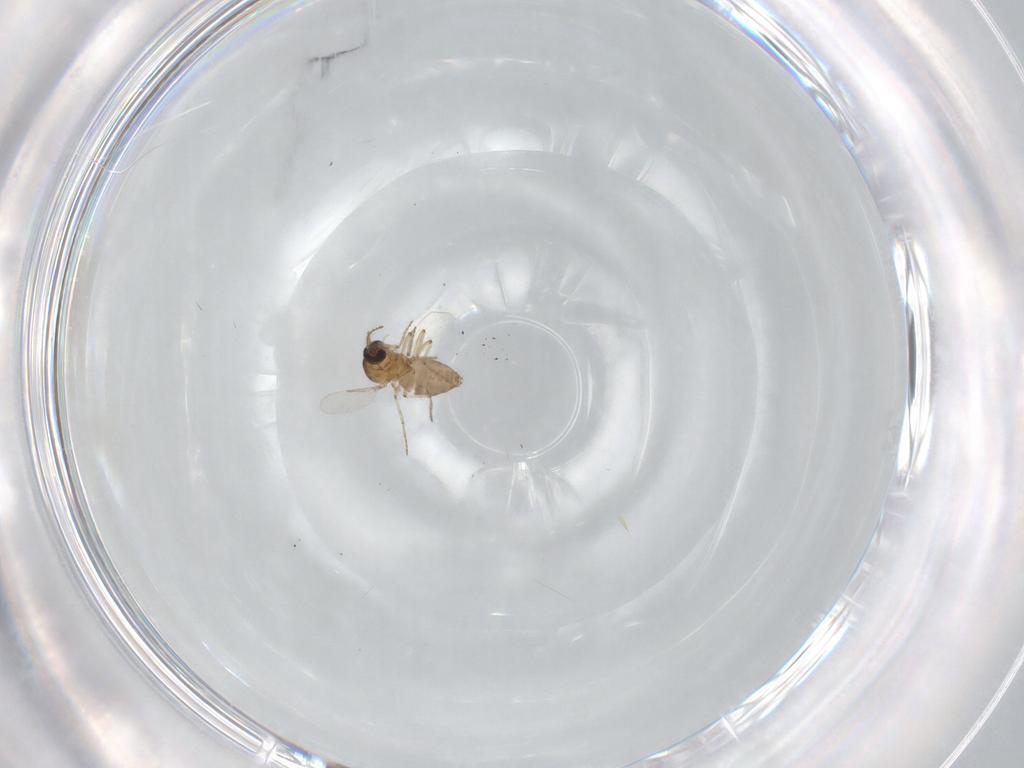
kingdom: Animalia
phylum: Arthropoda
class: Insecta
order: Diptera
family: Ceratopogonidae
